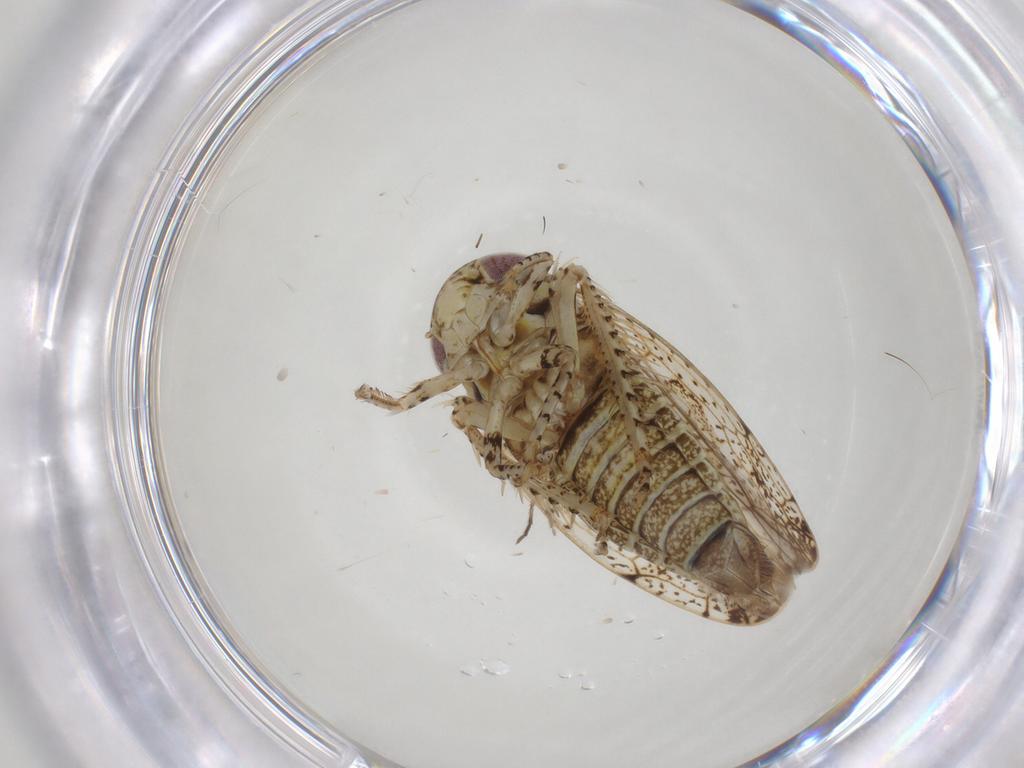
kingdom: Animalia
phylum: Arthropoda
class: Insecta
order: Hemiptera
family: Cicadellidae
